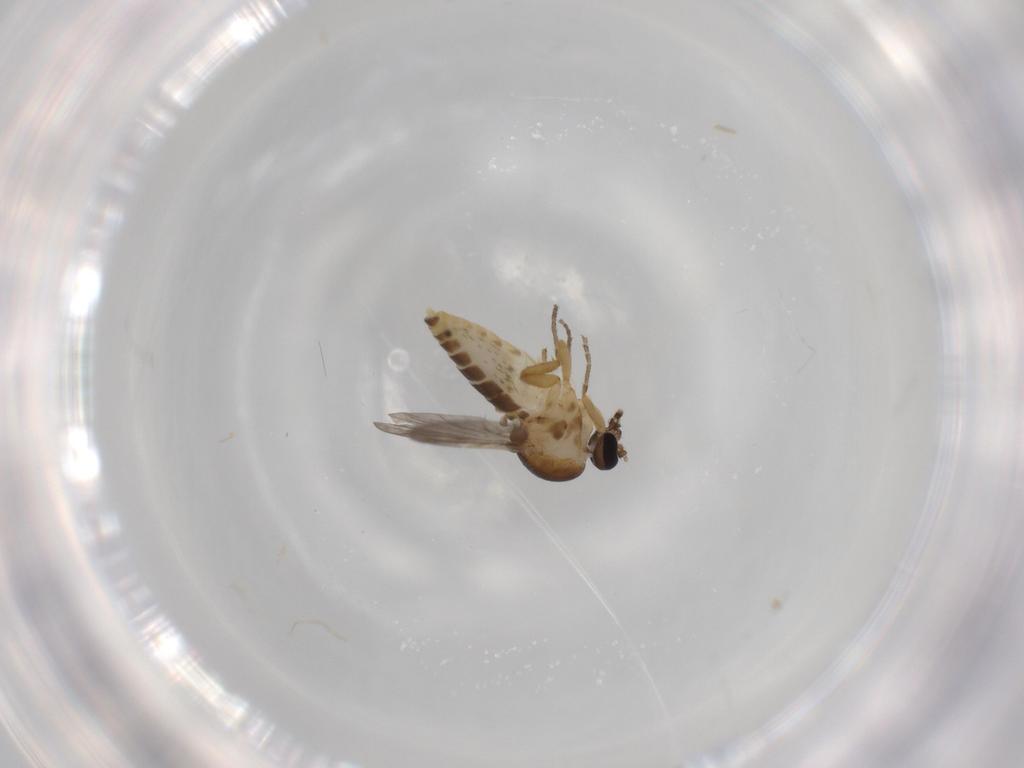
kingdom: Animalia
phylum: Arthropoda
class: Insecta
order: Diptera
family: Ceratopogonidae
